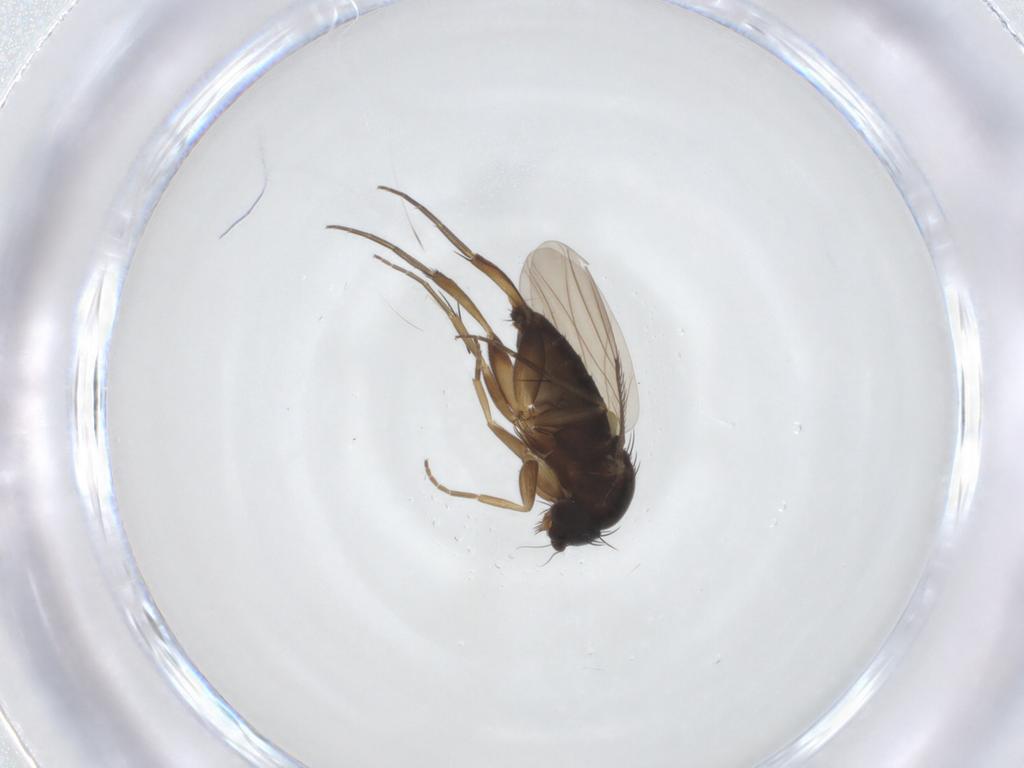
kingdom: Animalia
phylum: Arthropoda
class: Insecta
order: Diptera
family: Phoridae
